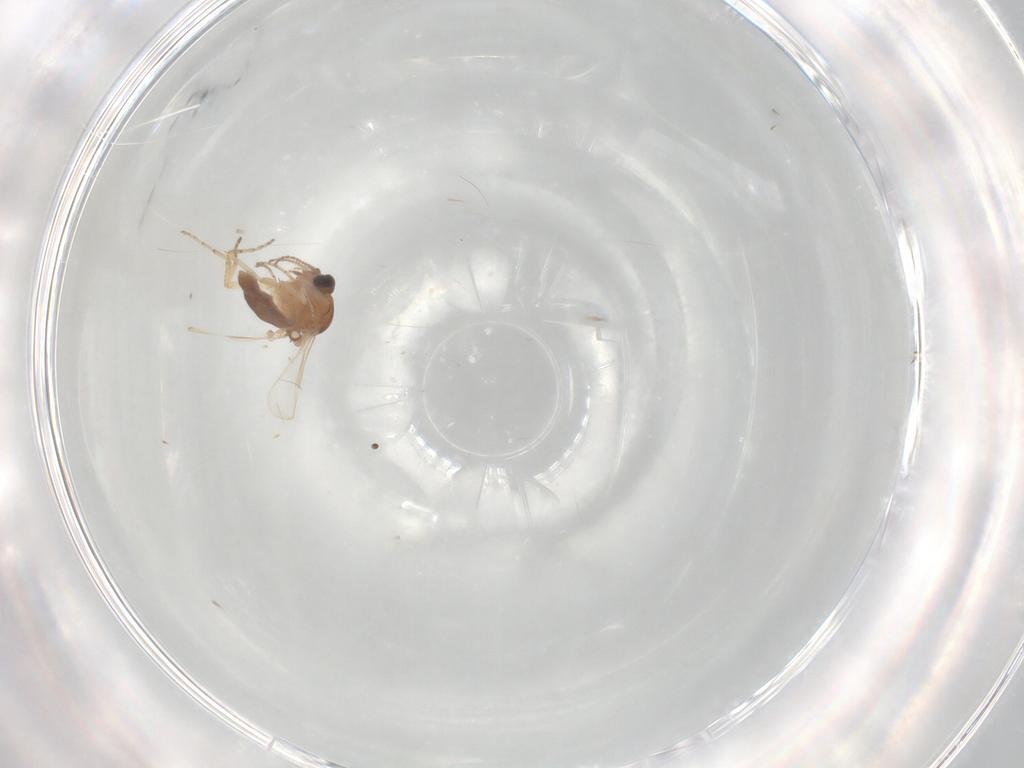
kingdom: Animalia
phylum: Arthropoda
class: Insecta
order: Diptera
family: Ceratopogonidae
